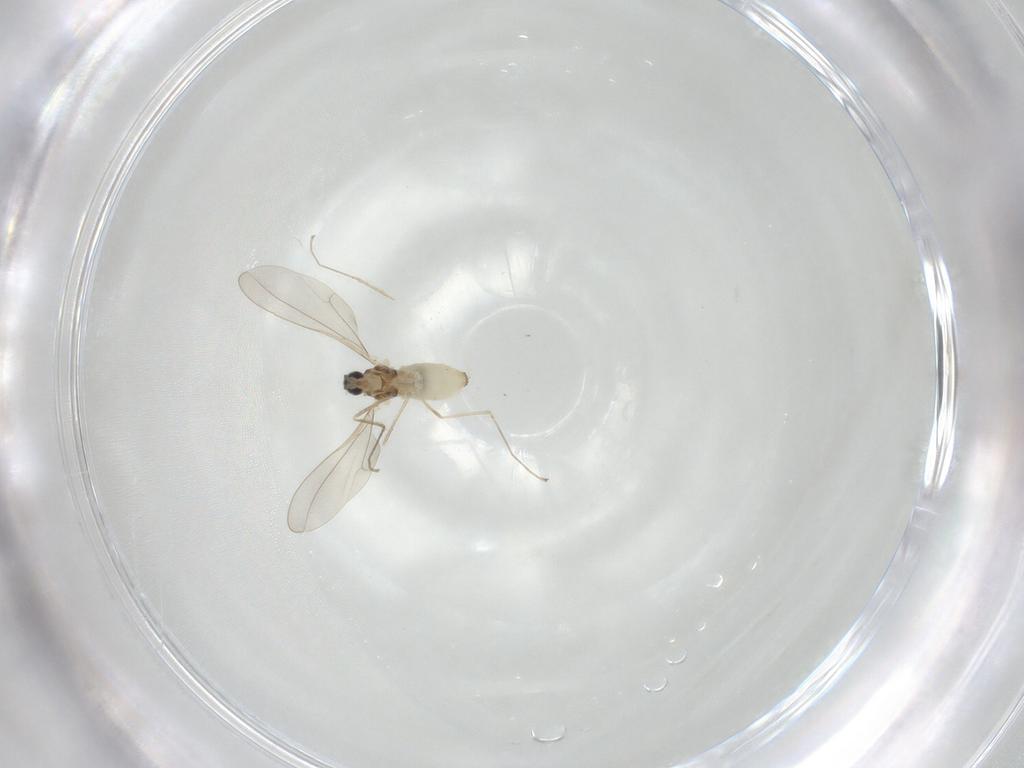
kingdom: Animalia
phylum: Arthropoda
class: Insecta
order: Diptera
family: Cecidomyiidae
